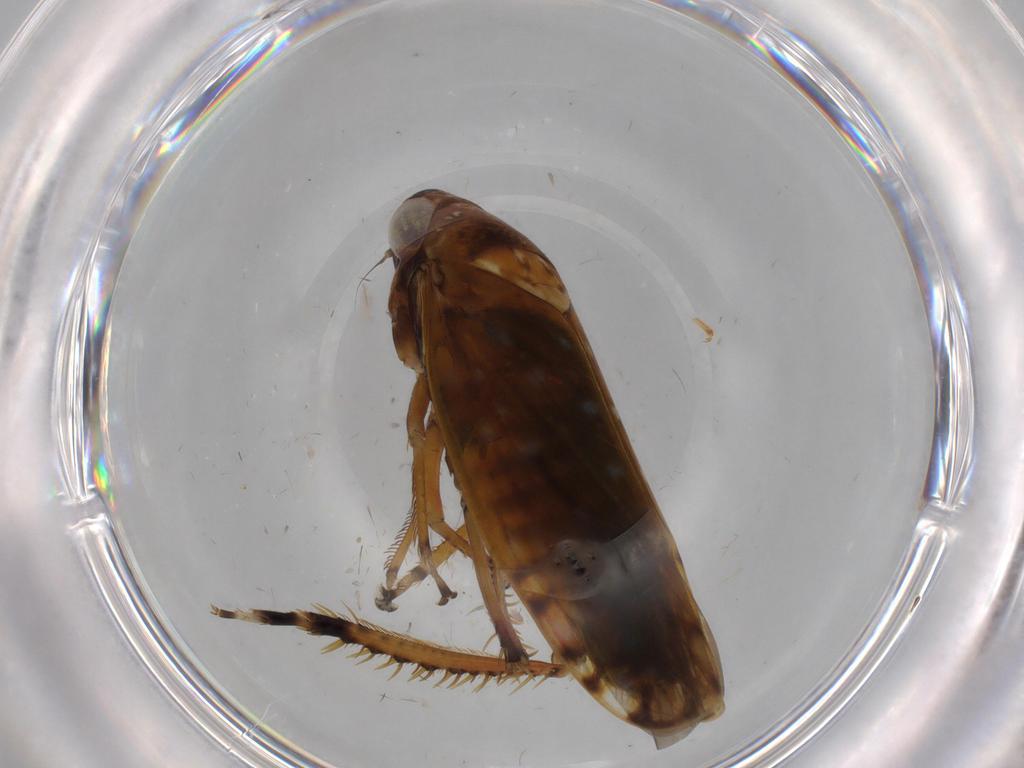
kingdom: Animalia
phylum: Arthropoda
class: Insecta
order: Hemiptera
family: Cicadellidae
